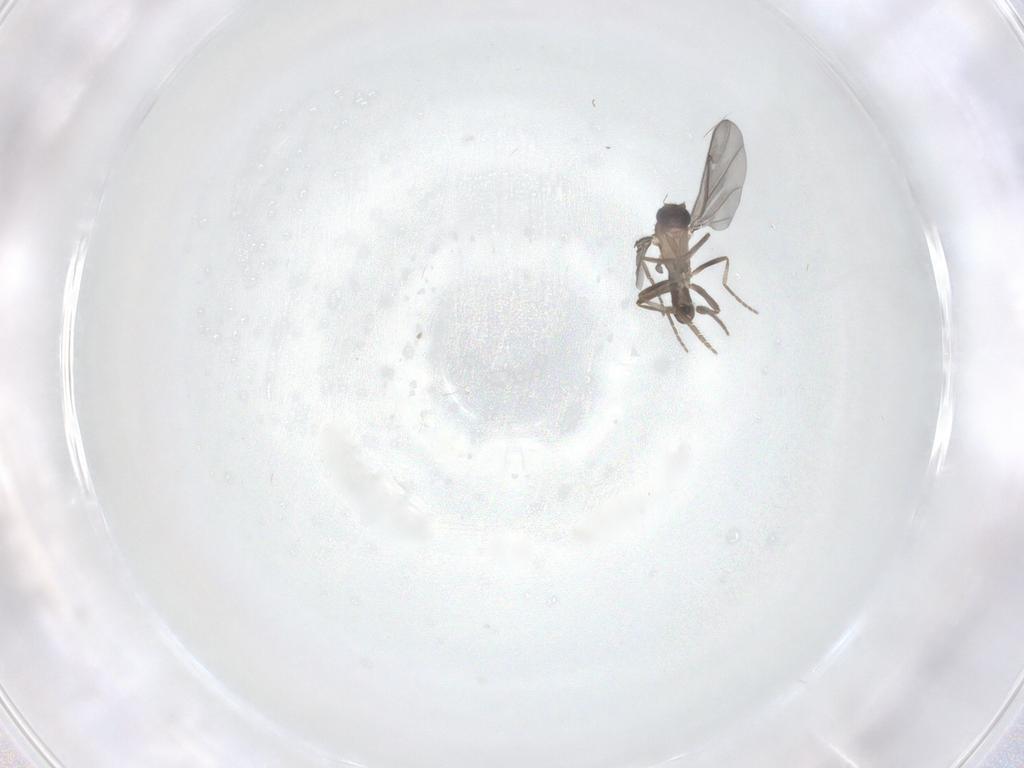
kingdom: Animalia
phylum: Arthropoda
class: Insecta
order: Diptera
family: Phoridae
